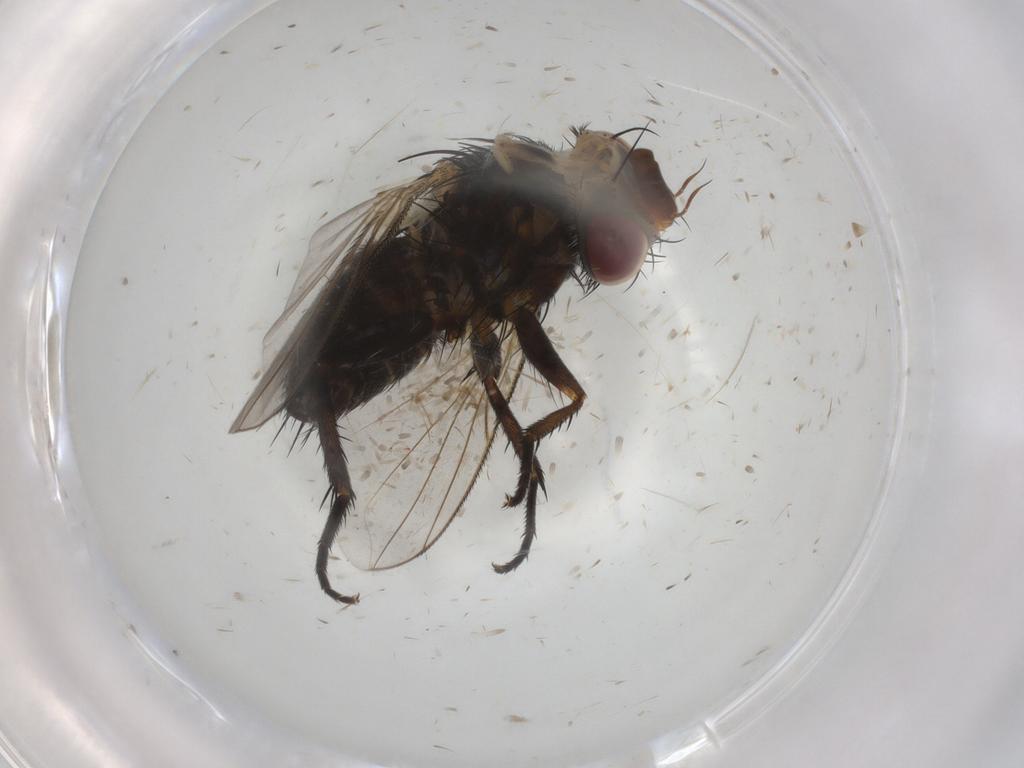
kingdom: Animalia
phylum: Arthropoda
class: Insecta
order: Diptera
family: Tachinidae
